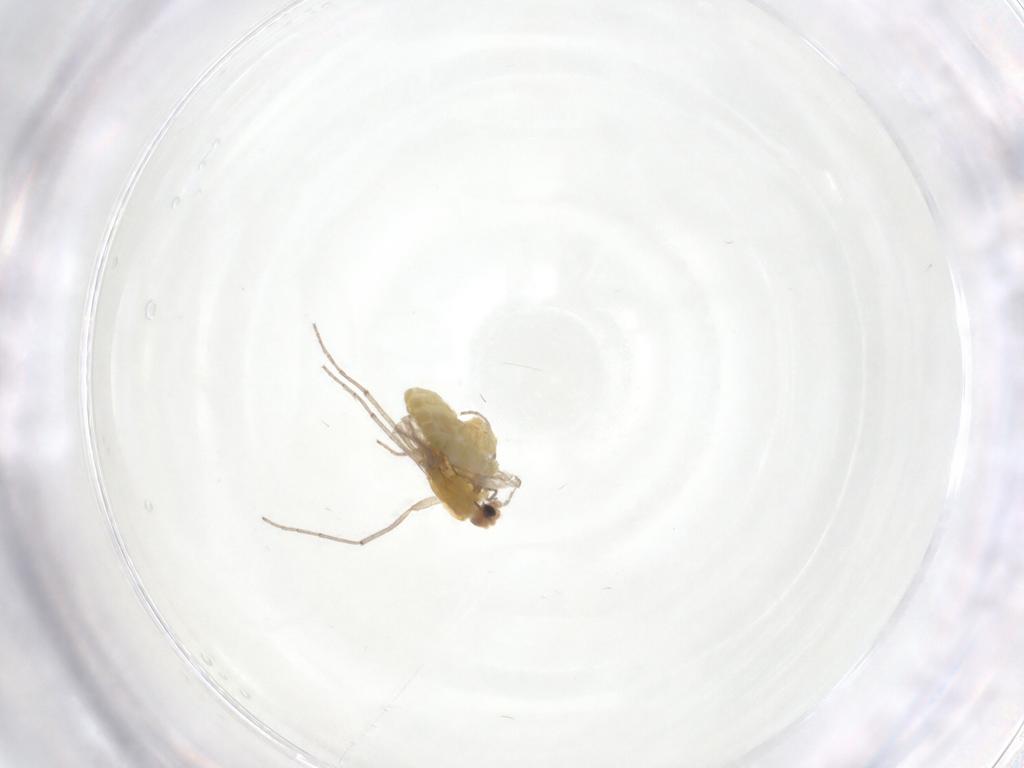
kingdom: Animalia
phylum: Arthropoda
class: Insecta
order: Diptera
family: Chironomidae
